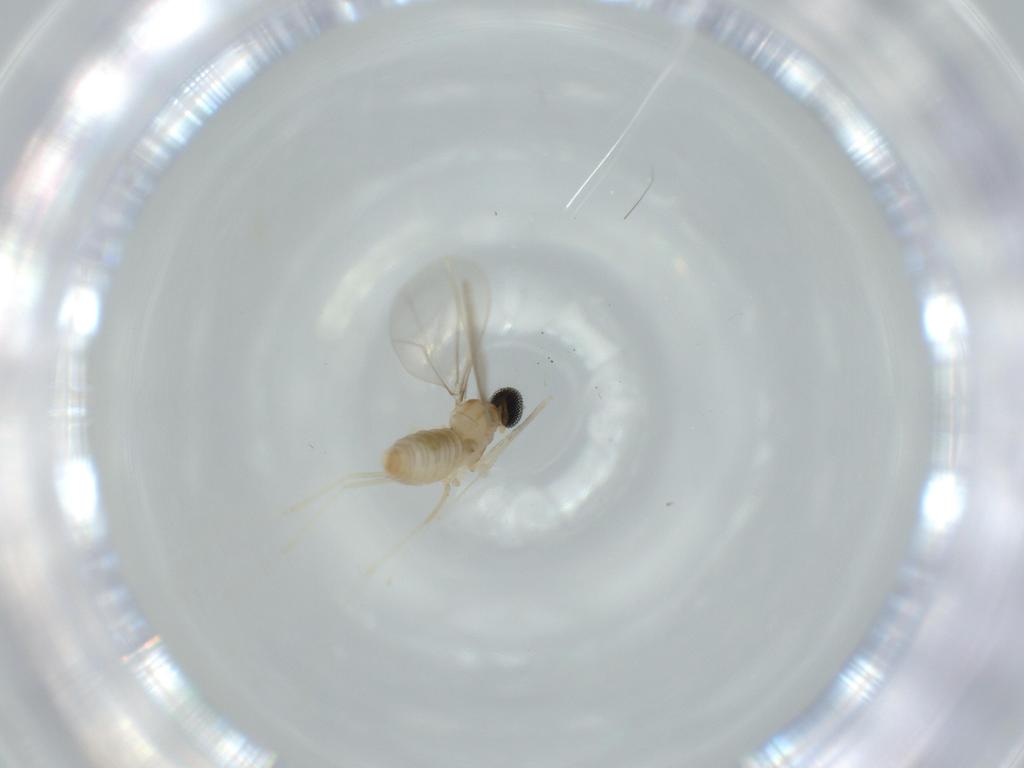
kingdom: Animalia
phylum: Arthropoda
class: Insecta
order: Diptera
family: Cecidomyiidae
